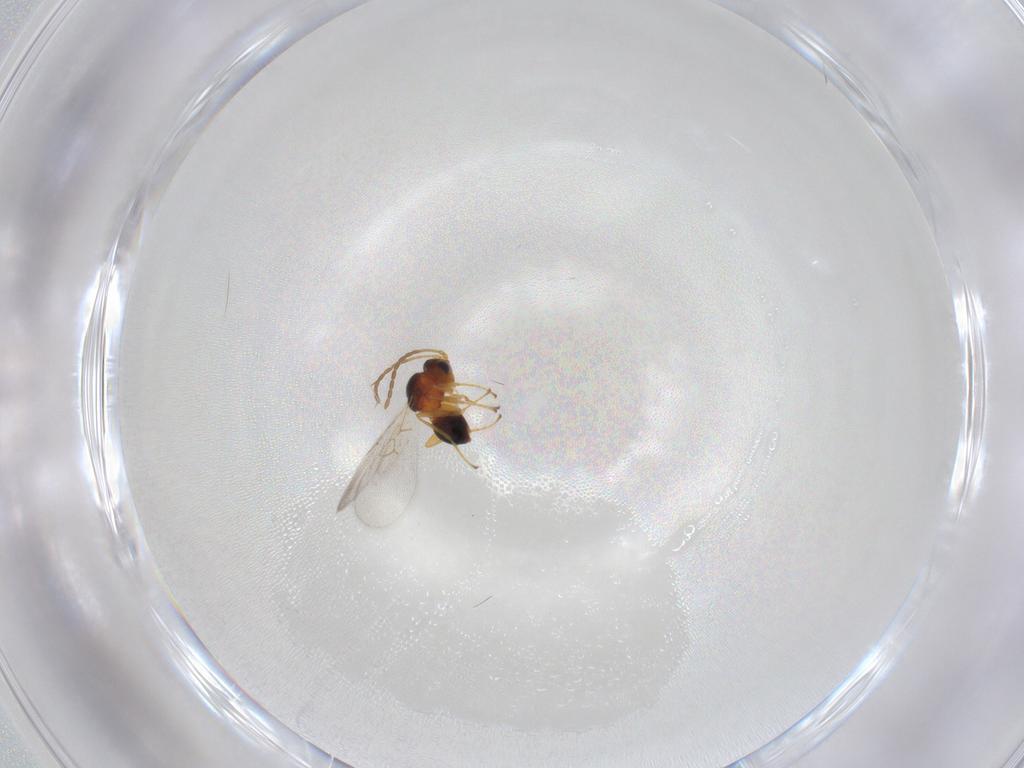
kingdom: Animalia
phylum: Arthropoda
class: Insecta
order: Hymenoptera
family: Figitidae
